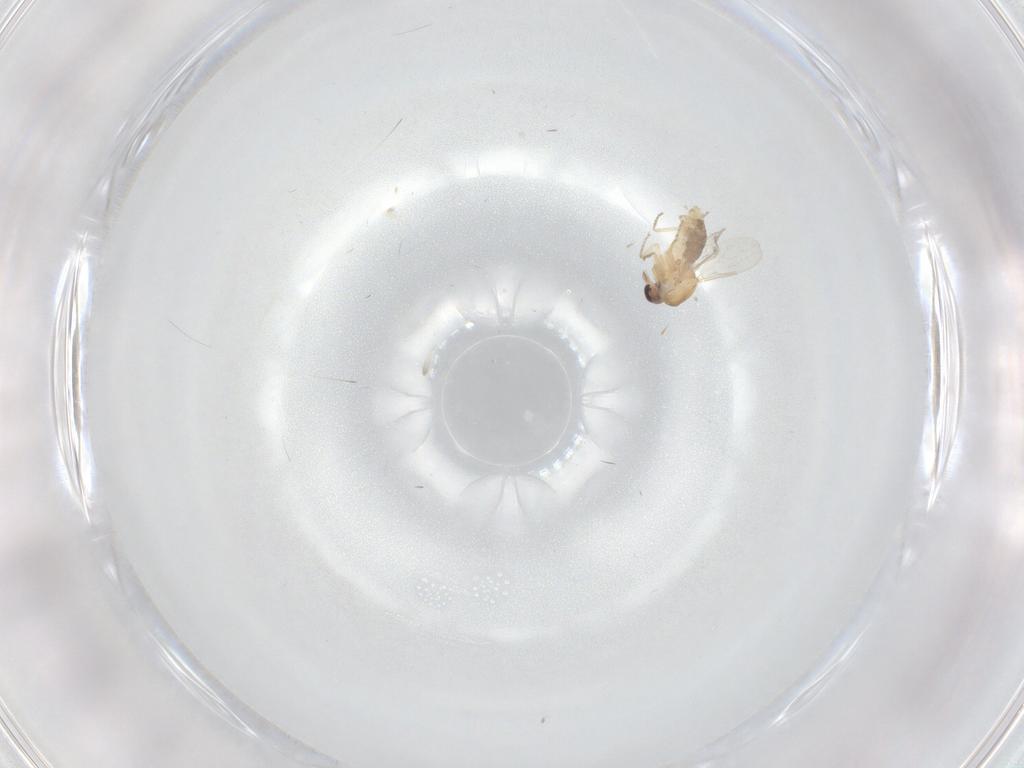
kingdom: Animalia
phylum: Arthropoda
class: Insecta
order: Diptera
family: Ceratopogonidae
